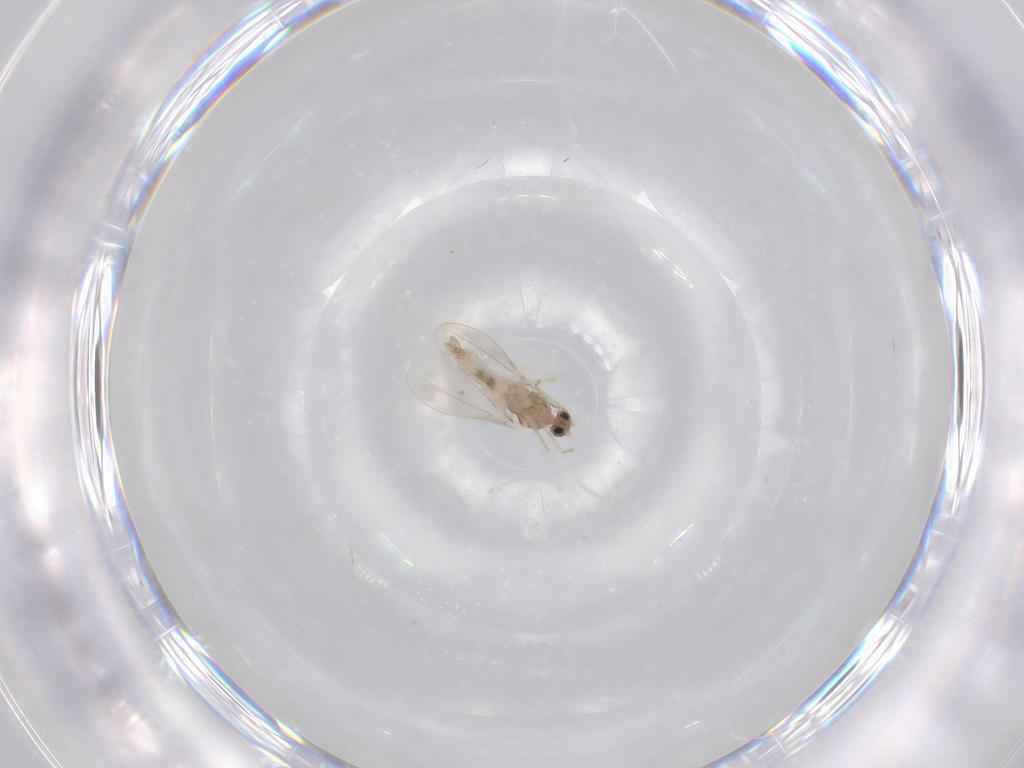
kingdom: Animalia
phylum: Arthropoda
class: Insecta
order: Diptera
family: Cecidomyiidae
